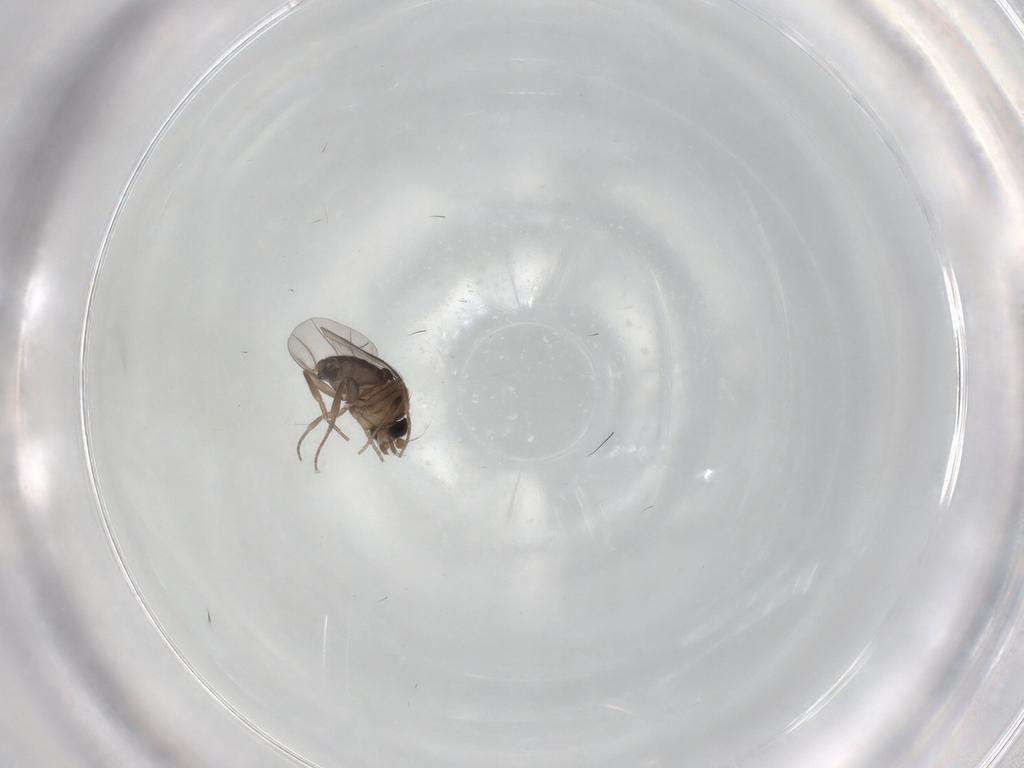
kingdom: Animalia
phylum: Arthropoda
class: Insecta
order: Diptera
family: Phoridae
